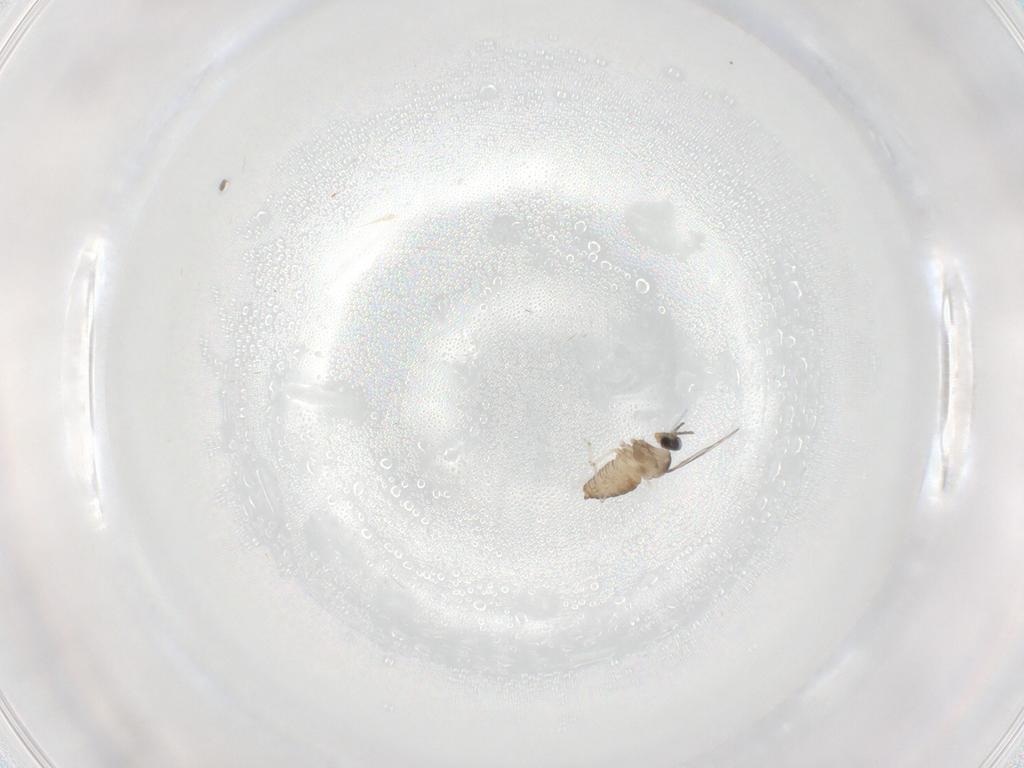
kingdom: Animalia
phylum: Arthropoda
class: Insecta
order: Diptera
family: Cecidomyiidae
